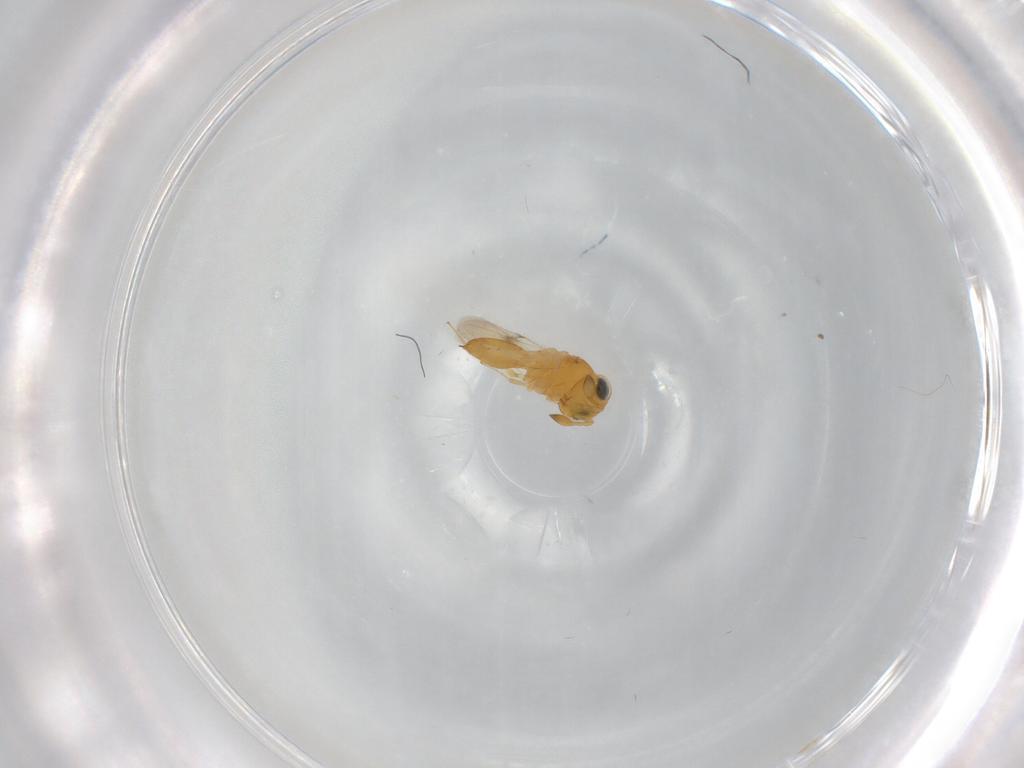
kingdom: Animalia
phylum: Arthropoda
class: Insecta
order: Hymenoptera
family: Scelionidae
